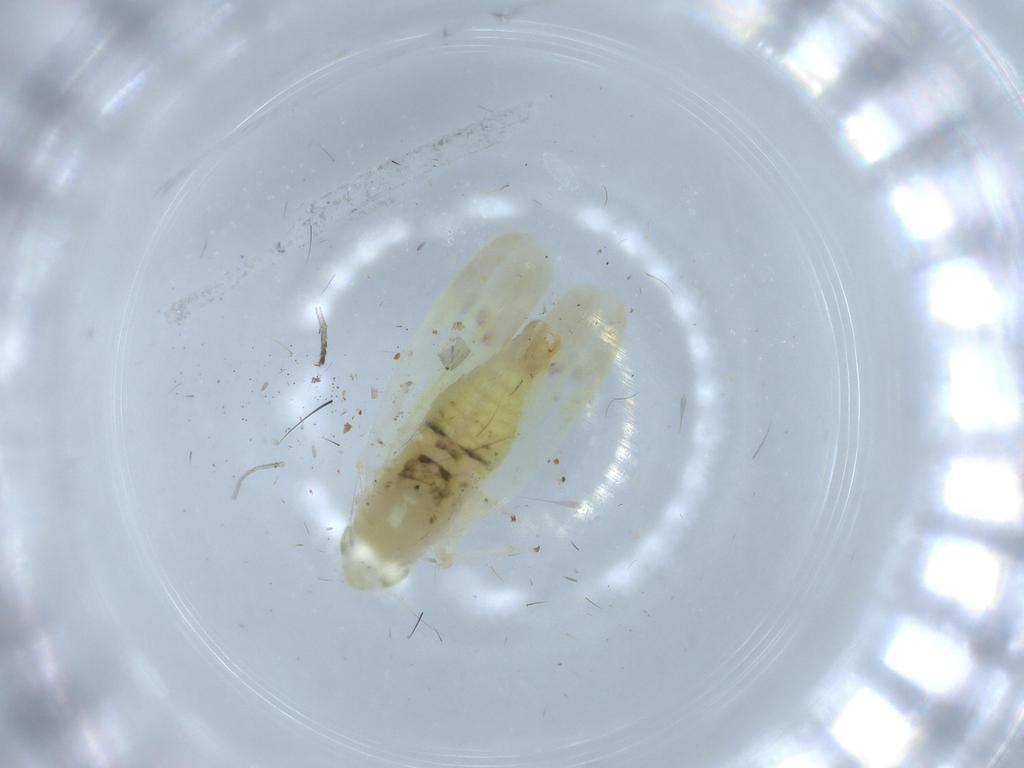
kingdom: Animalia
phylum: Arthropoda
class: Insecta
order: Hemiptera
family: Cicadellidae
